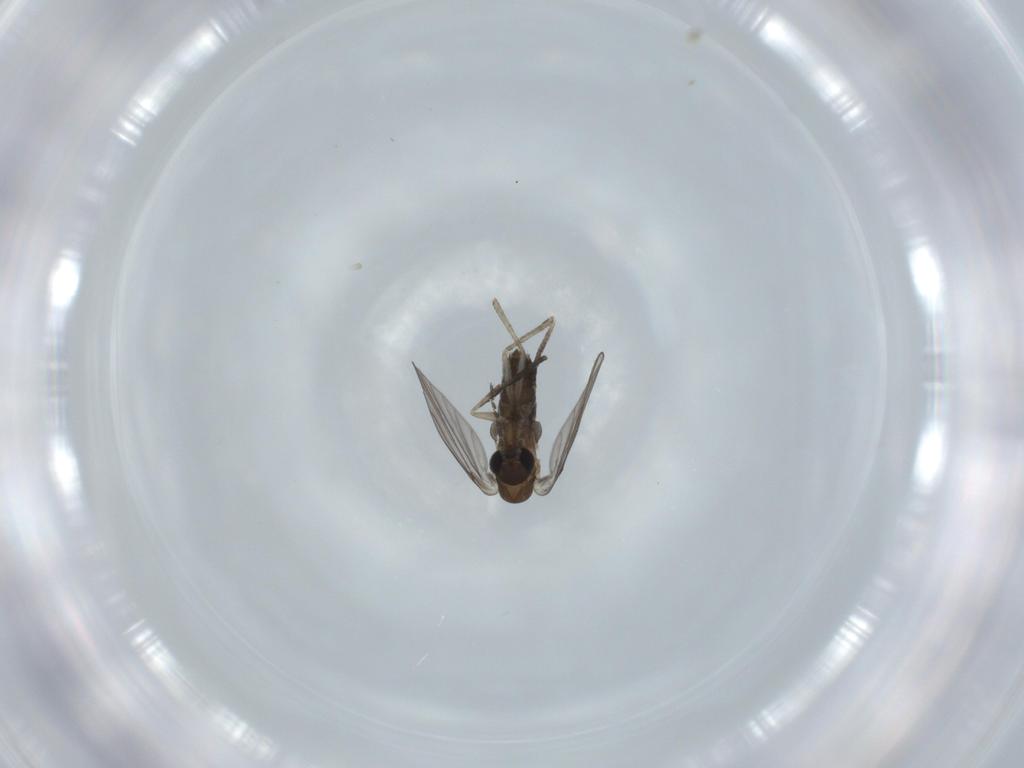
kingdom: Animalia
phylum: Arthropoda
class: Insecta
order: Diptera
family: Psychodidae
